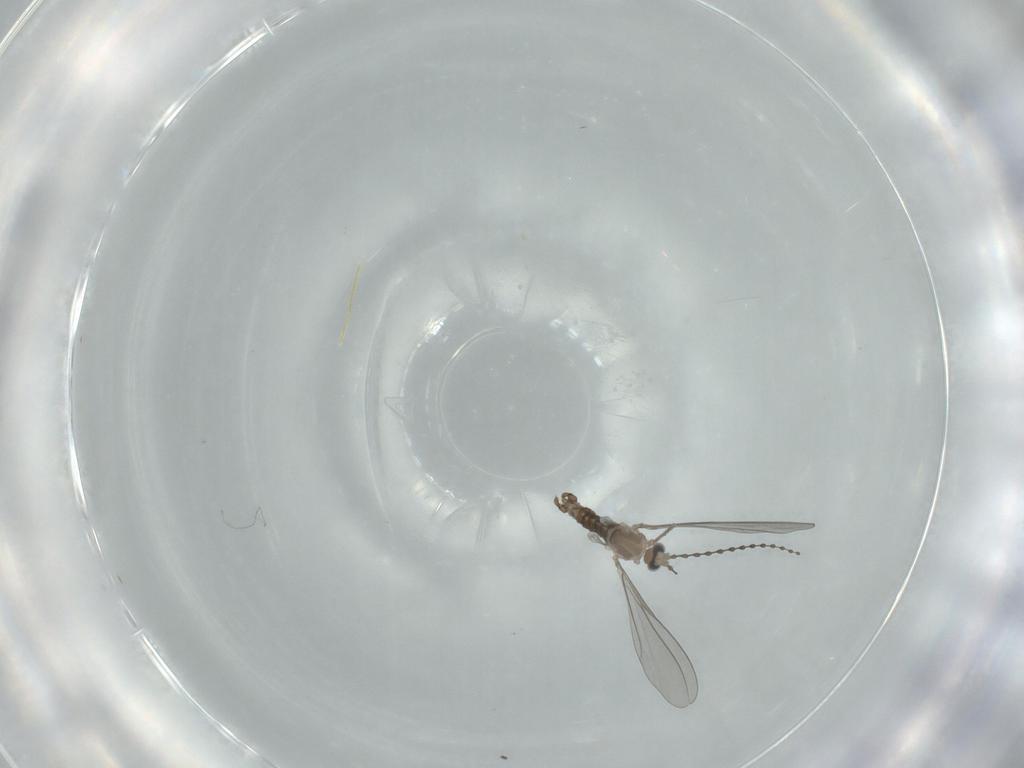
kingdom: Animalia
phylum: Arthropoda
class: Insecta
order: Diptera
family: Cecidomyiidae
